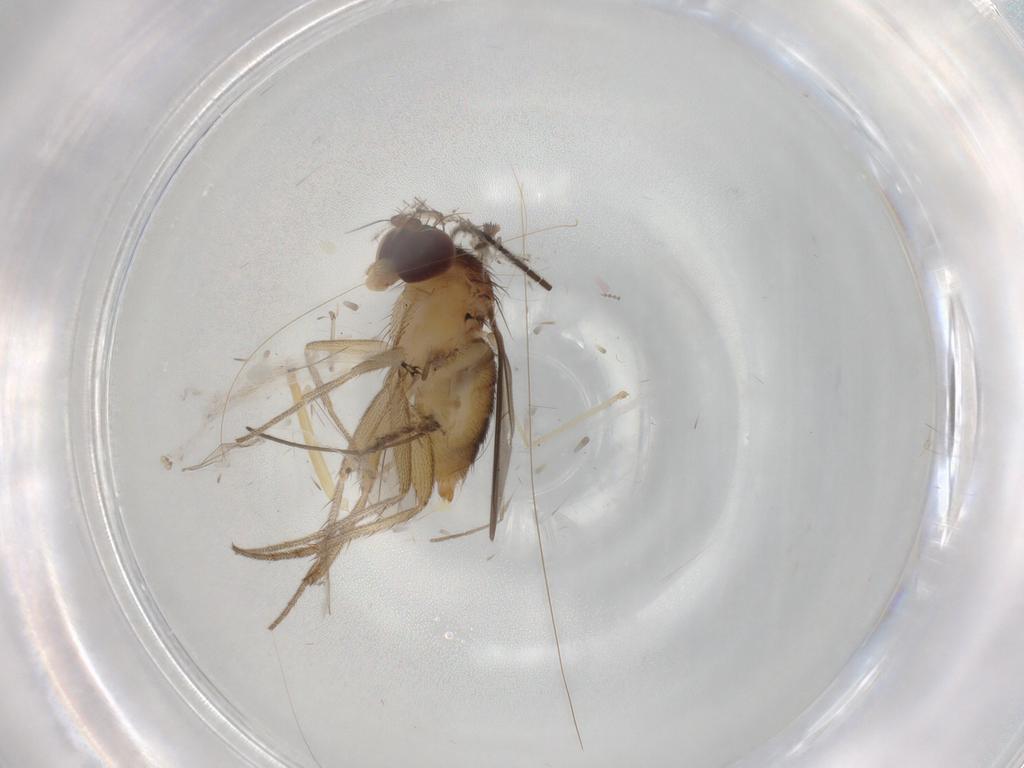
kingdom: Animalia
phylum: Arthropoda
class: Insecta
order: Diptera
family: Dolichopodidae
